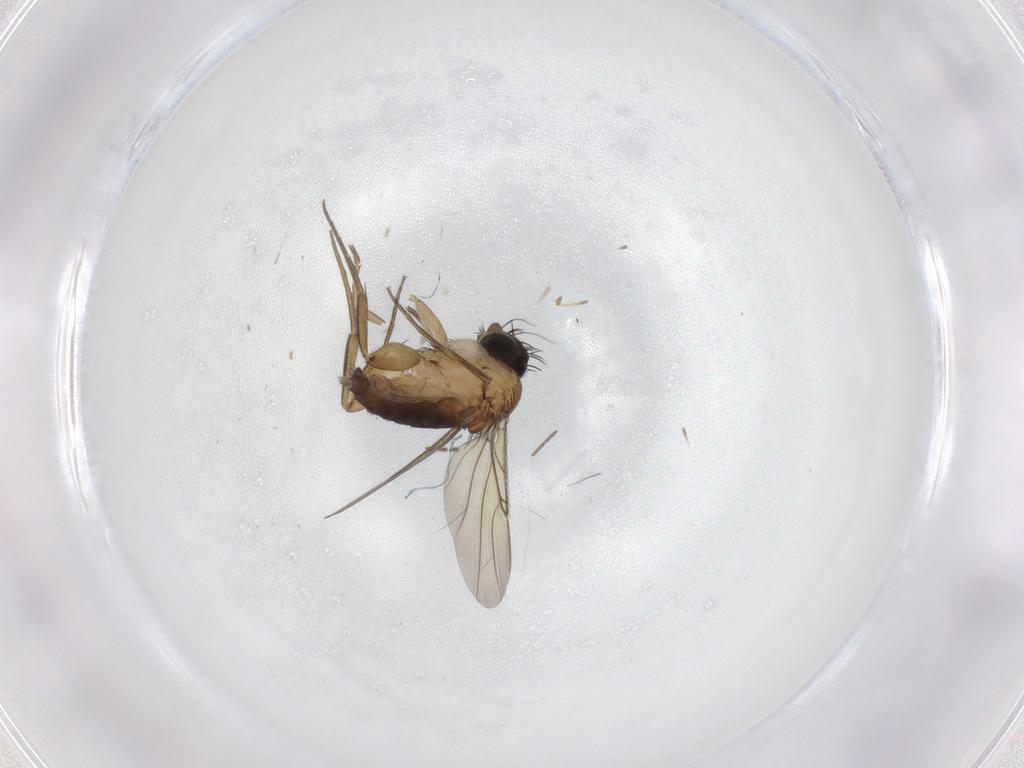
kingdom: Animalia
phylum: Arthropoda
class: Insecta
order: Diptera
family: Phoridae
